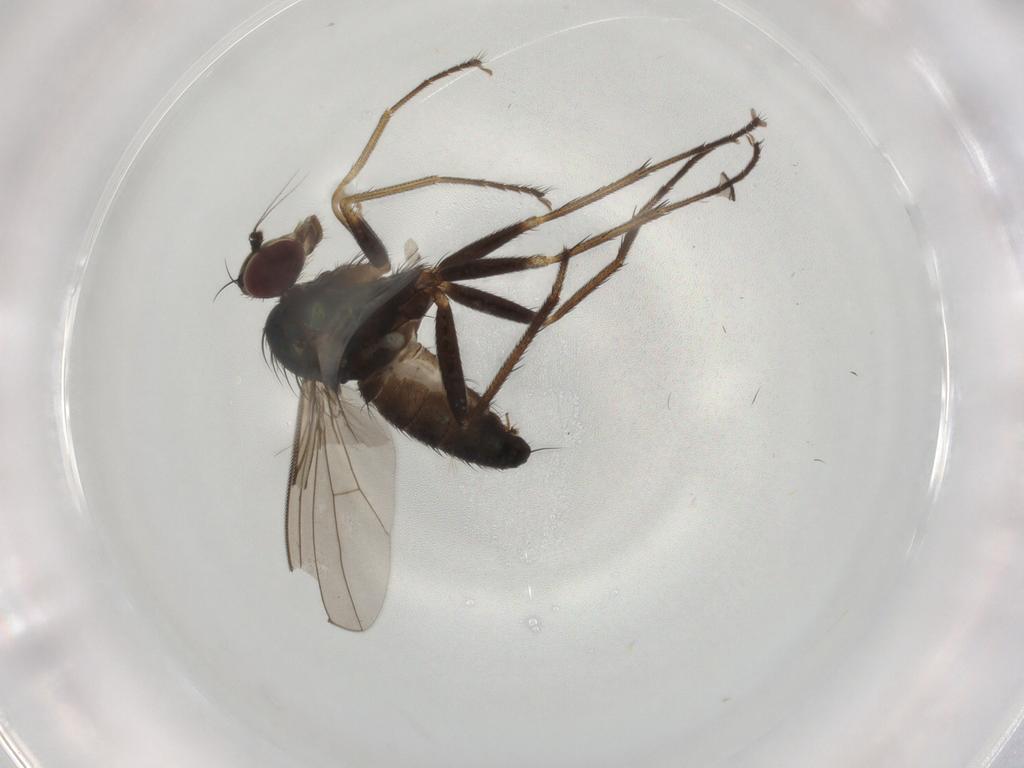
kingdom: Animalia
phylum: Arthropoda
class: Insecta
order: Diptera
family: Dolichopodidae
